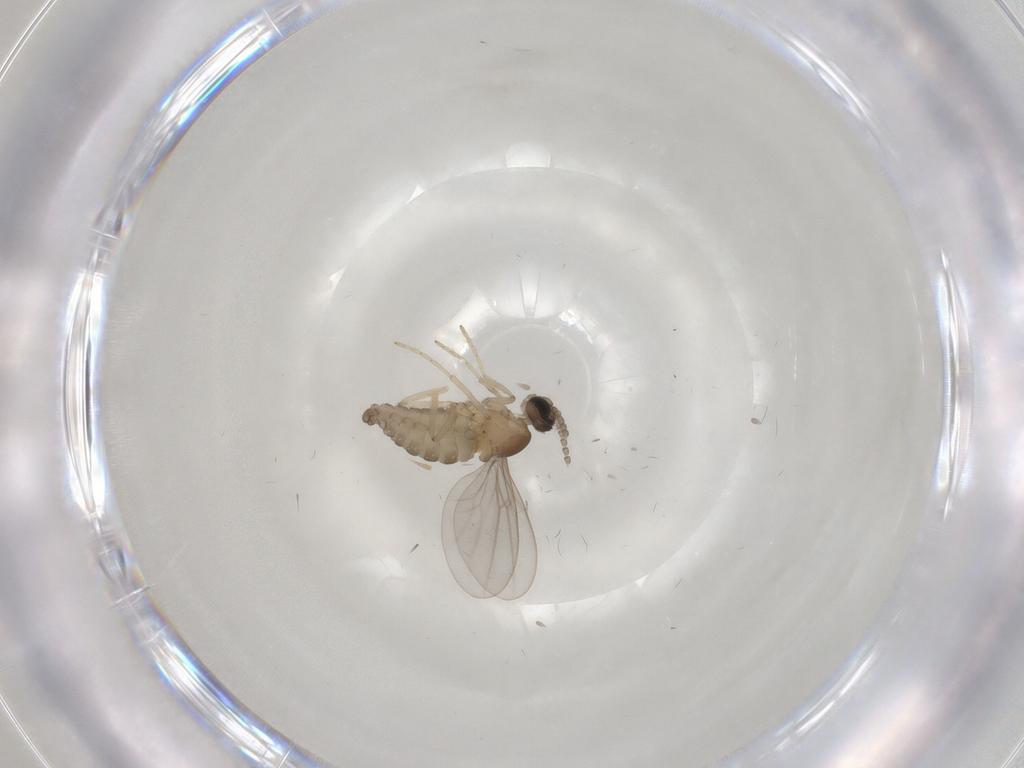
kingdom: Animalia
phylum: Arthropoda
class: Insecta
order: Diptera
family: Cecidomyiidae
